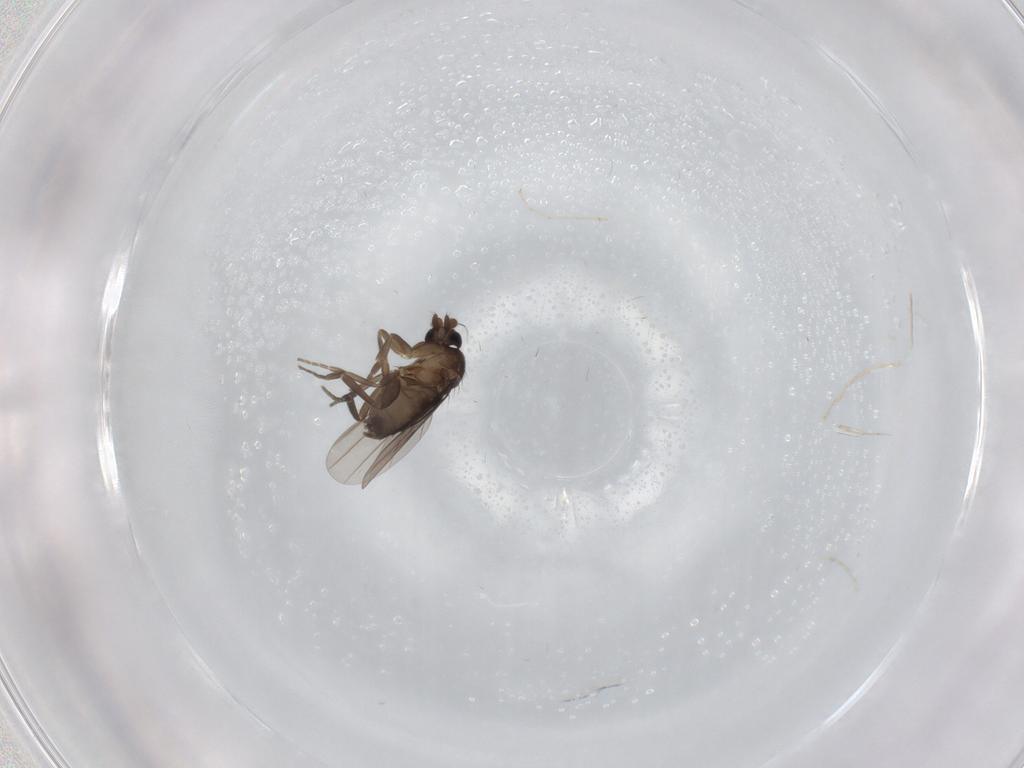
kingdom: Animalia
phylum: Arthropoda
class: Insecta
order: Diptera
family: Phoridae
